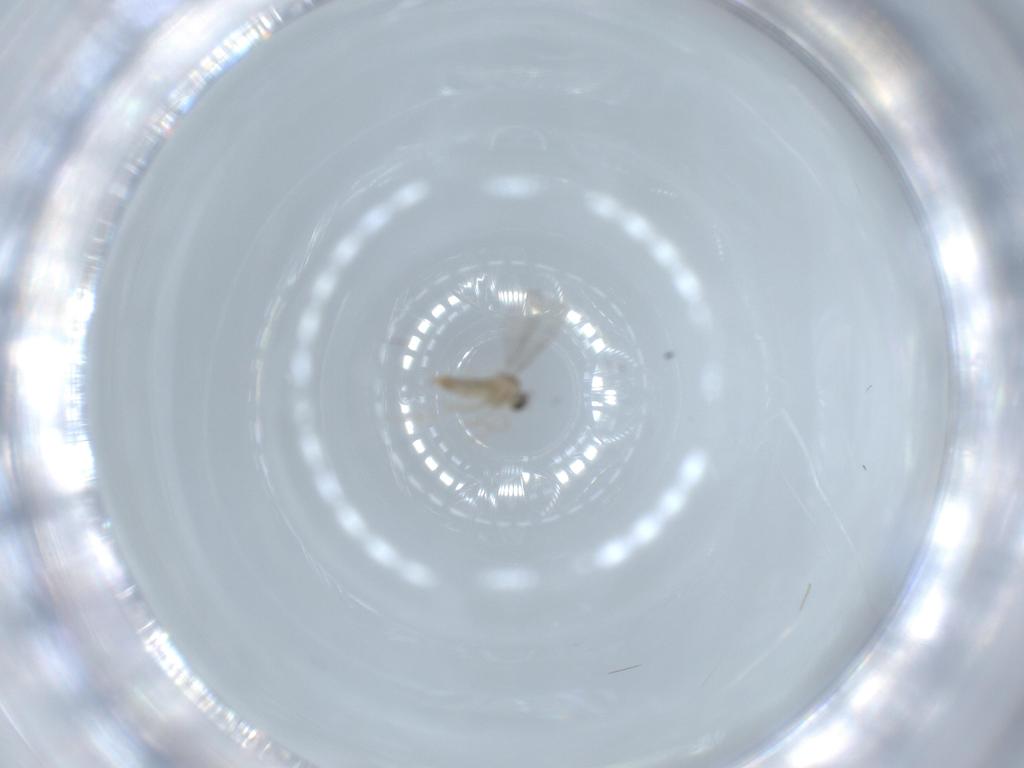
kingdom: Animalia
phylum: Arthropoda
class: Insecta
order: Diptera
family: Cecidomyiidae
